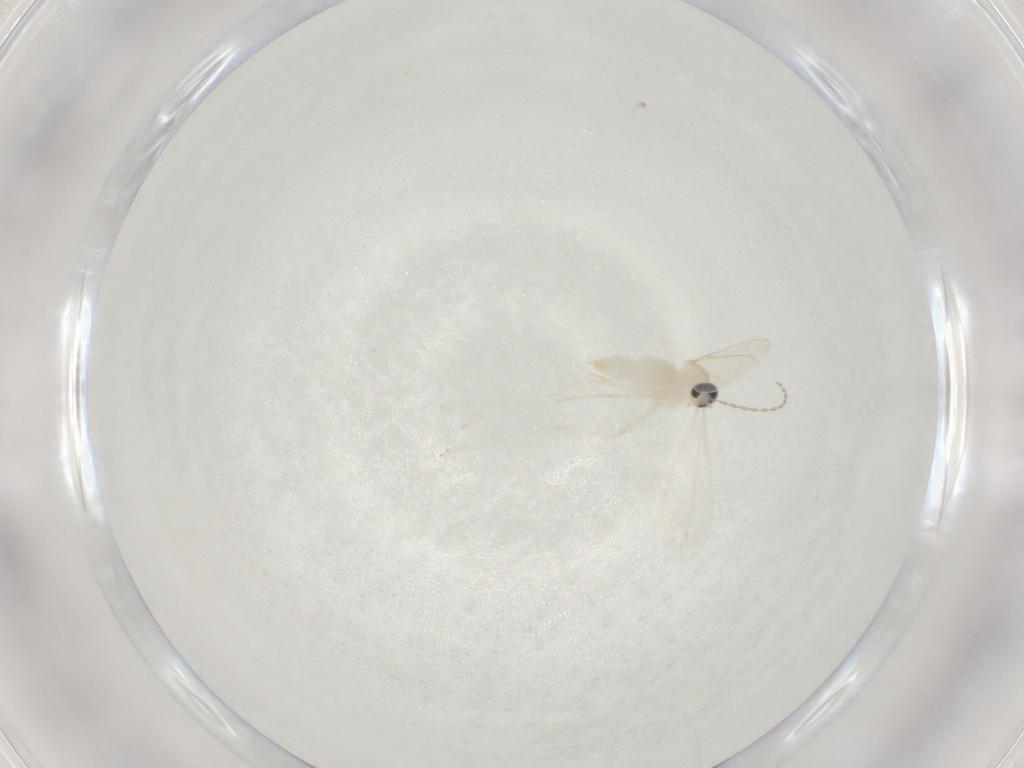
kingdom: Animalia
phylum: Arthropoda
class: Insecta
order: Diptera
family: Cecidomyiidae
